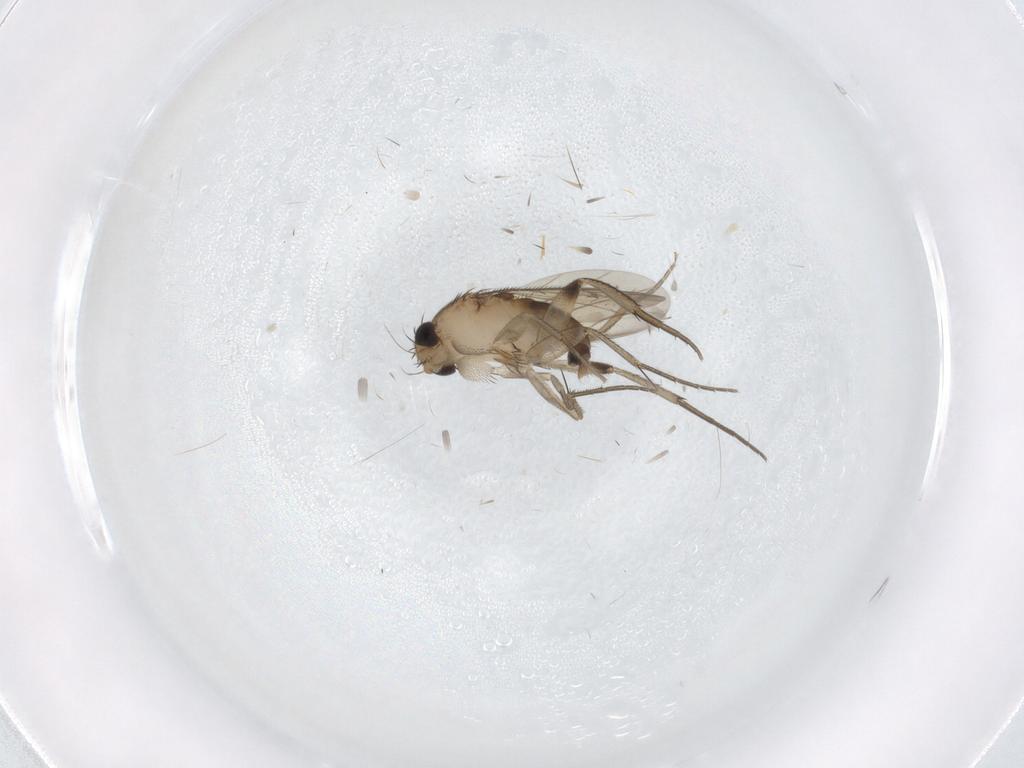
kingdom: Animalia
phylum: Arthropoda
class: Insecta
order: Diptera
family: Phoridae
